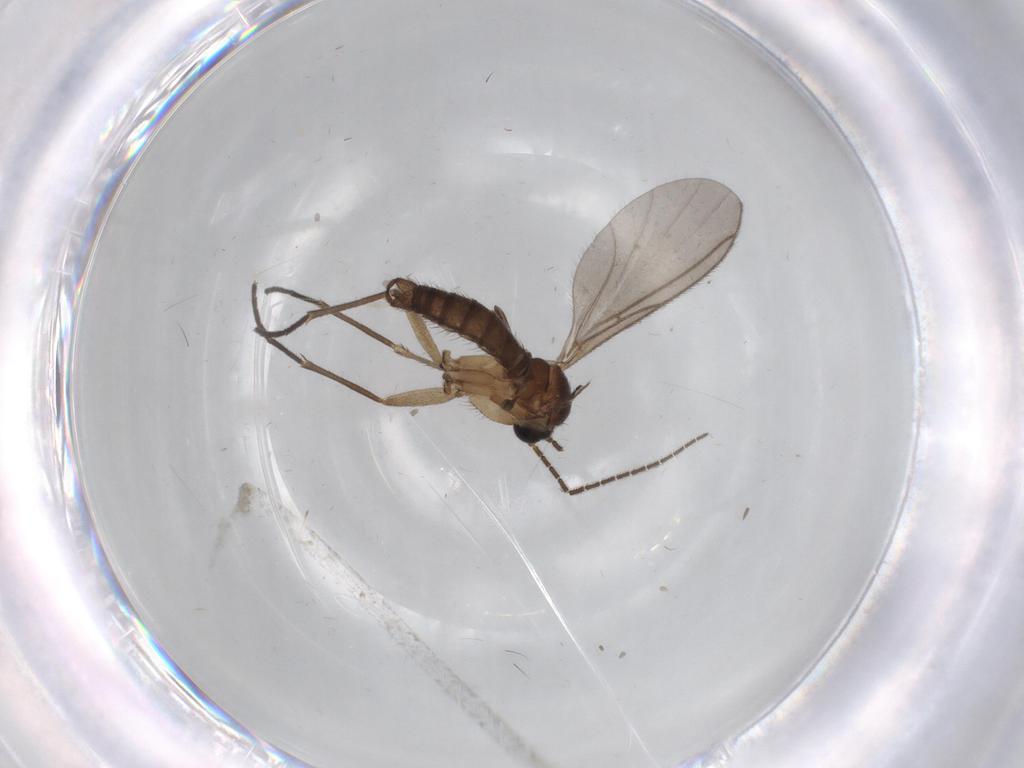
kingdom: Animalia
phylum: Arthropoda
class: Insecta
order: Diptera
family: Sciaridae
